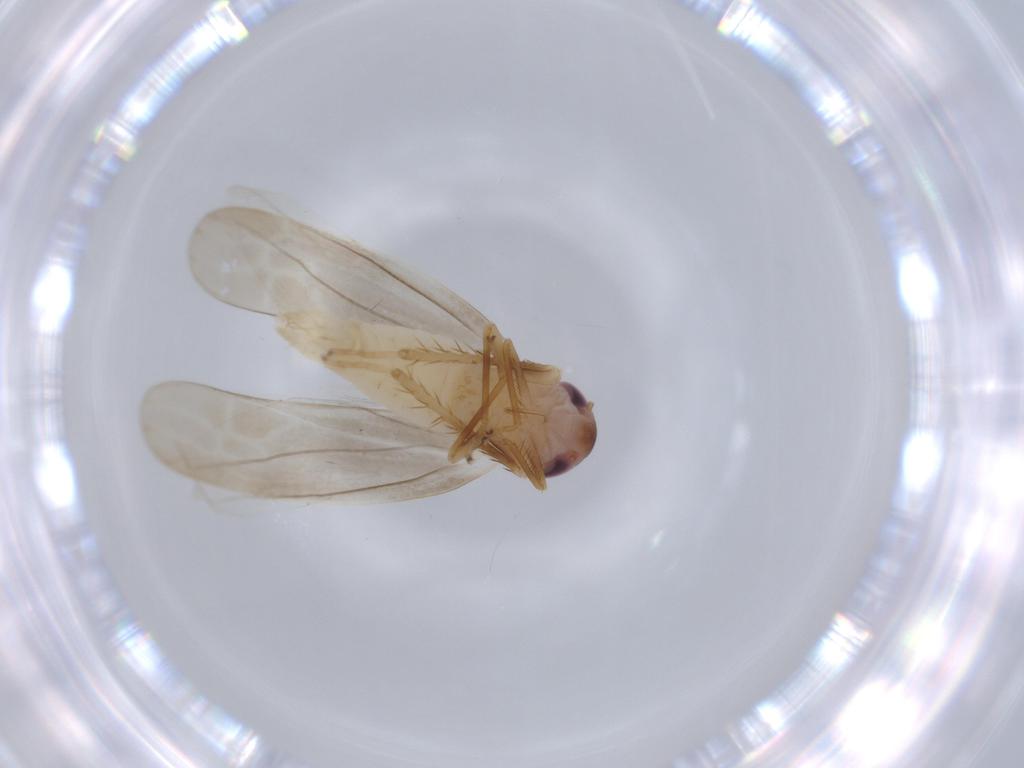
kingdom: Animalia
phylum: Arthropoda
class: Insecta
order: Hemiptera
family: Cicadellidae
